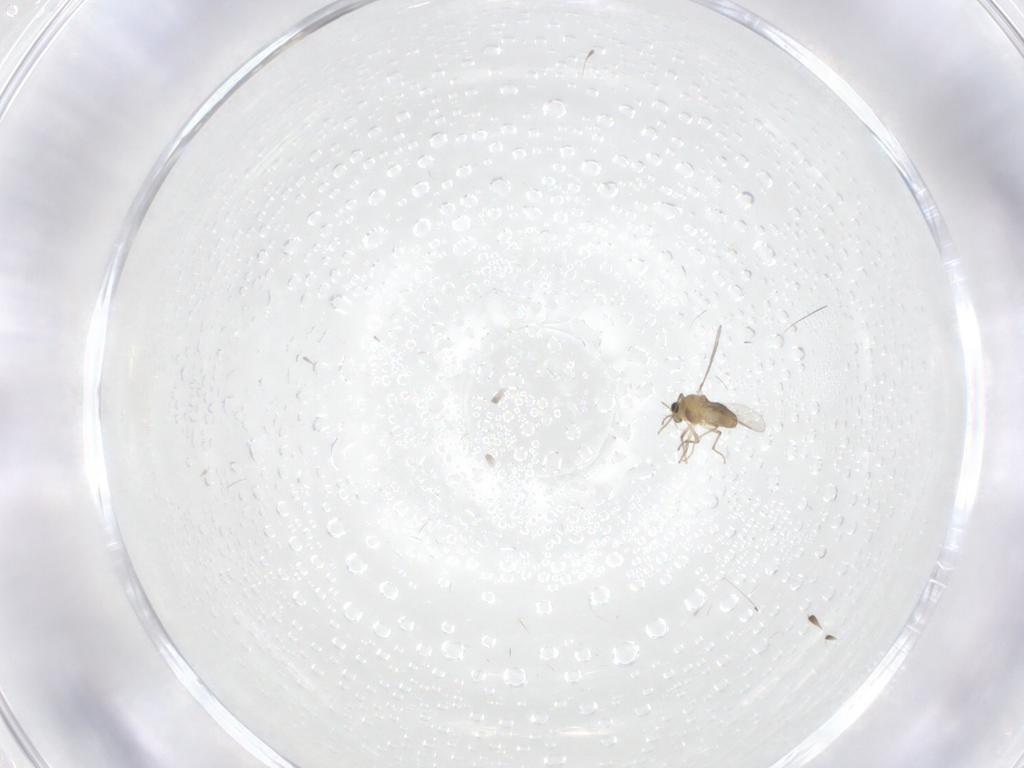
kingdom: Animalia
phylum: Arthropoda
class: Insecta
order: Diptera
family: Chironomidae
